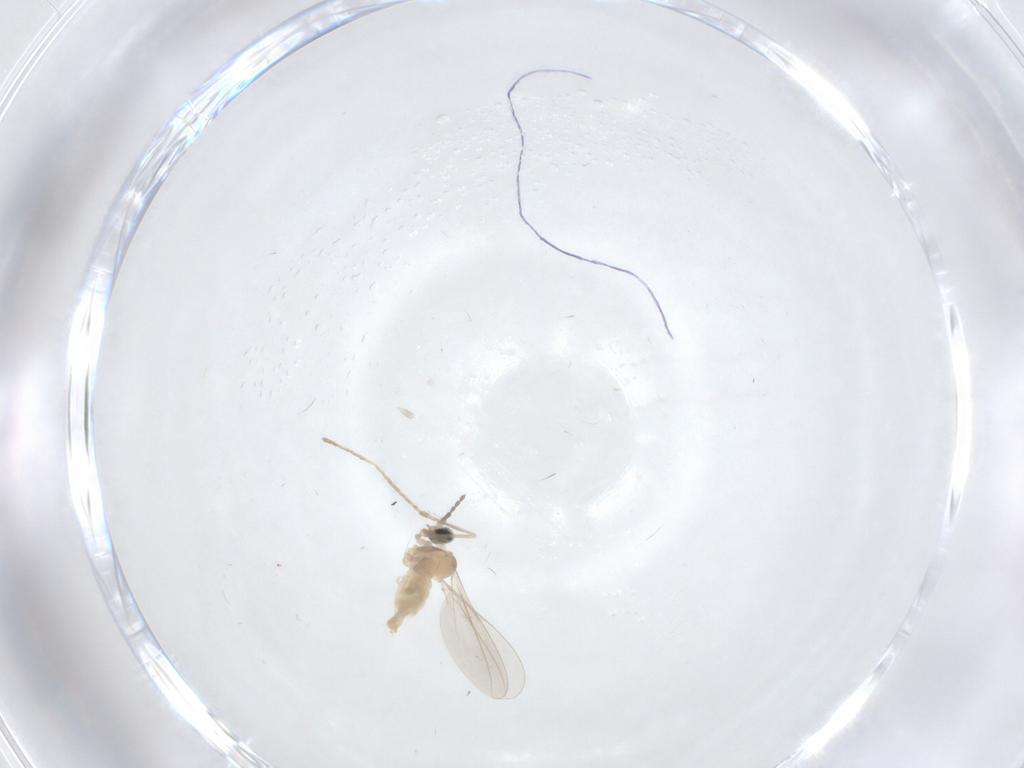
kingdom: Animalia
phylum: Arthropoda
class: Insecta
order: Diptera
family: Cecidomyiidae
